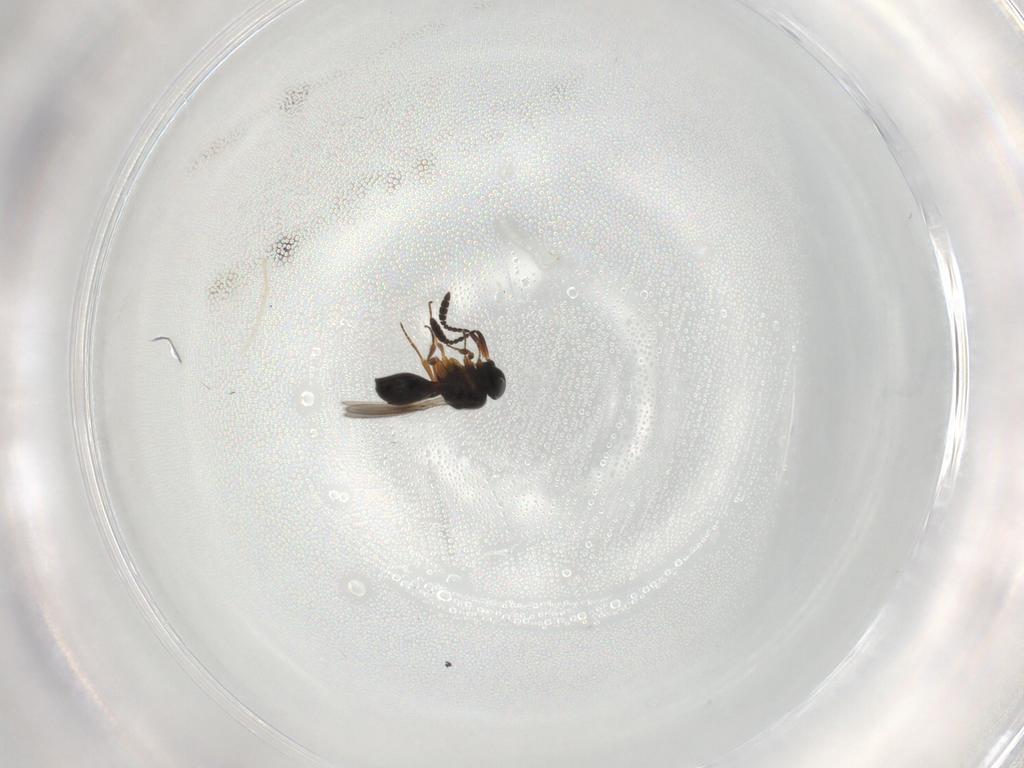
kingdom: Animalia
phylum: Arthropoda
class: Insecta
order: Hymenoptera
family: Scelionidae
